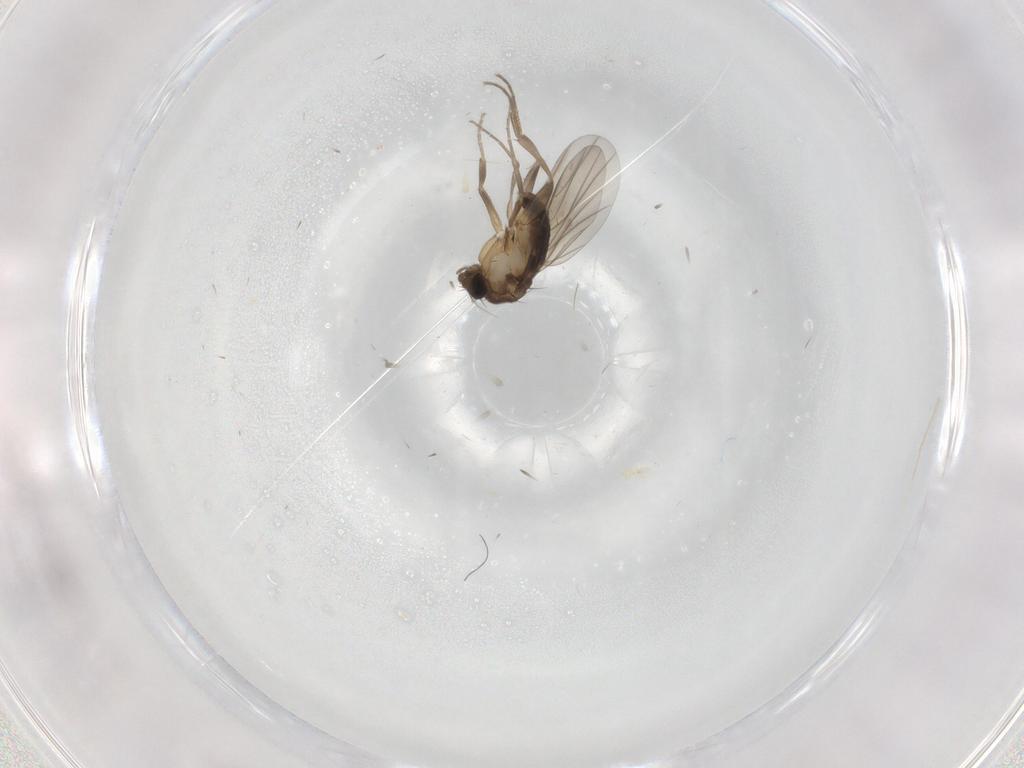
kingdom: Animalia
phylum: Arthropoda
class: Insecta
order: Diptera
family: Phoridae
